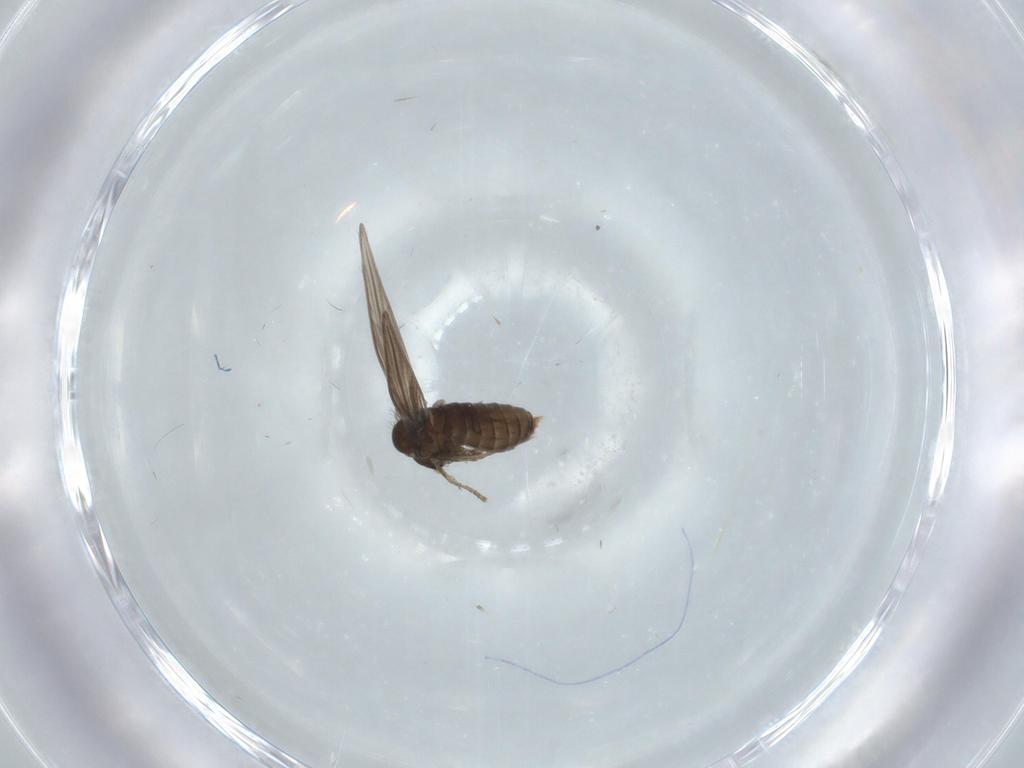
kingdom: Animalia
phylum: Arthropoda
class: Insecta
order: Diptera
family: Psychodidae
